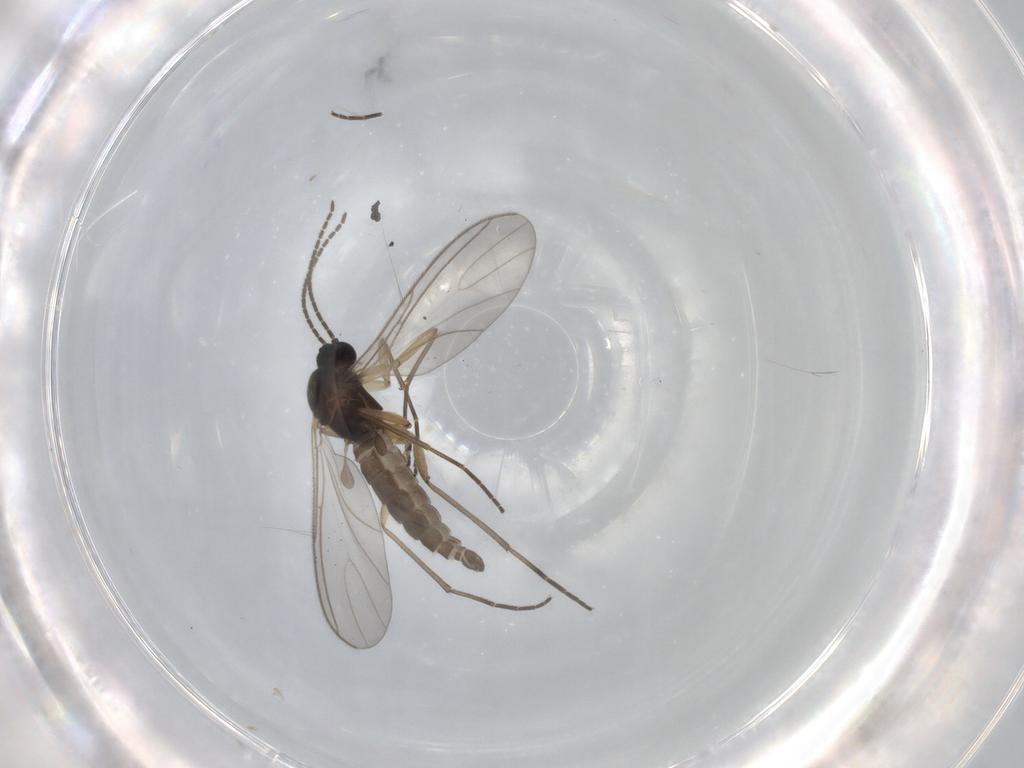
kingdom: Animalia
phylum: Arthropoda
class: Insecta
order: Diptera
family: Sciaridae
